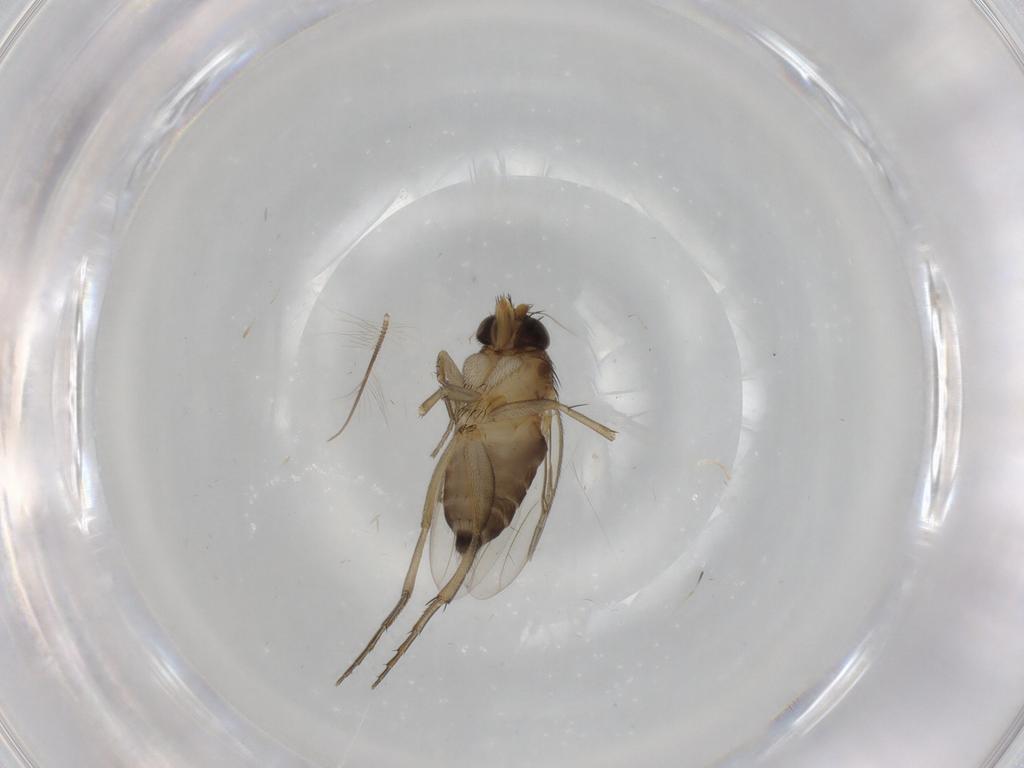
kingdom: Animalia
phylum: Arthropoda
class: Insecta
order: Diptera
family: Phoridae
